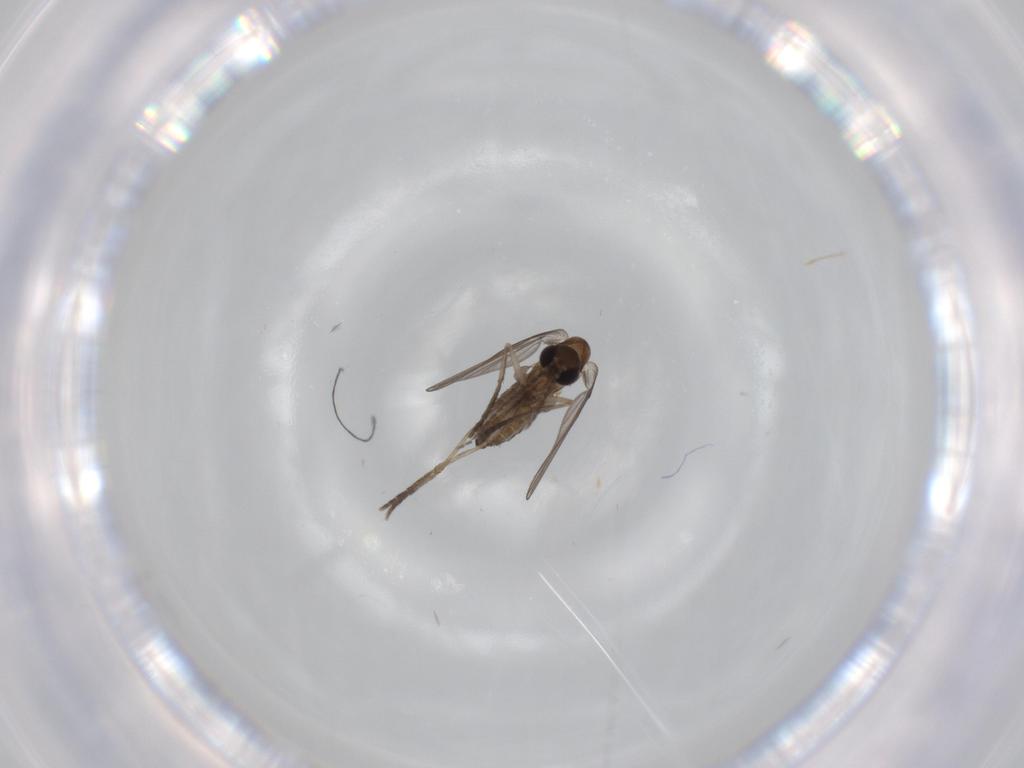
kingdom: Animalia
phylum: Arthropoda
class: Insecta
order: Diptera
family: Psychodidae
